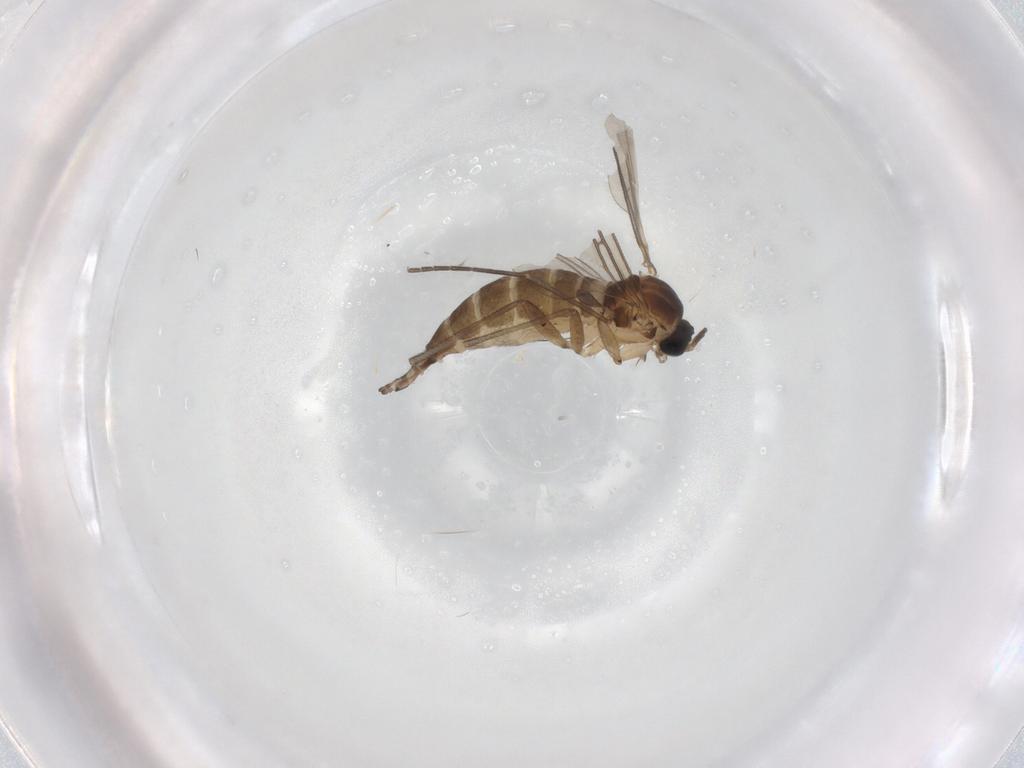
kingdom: Animalia
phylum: Arthropoda
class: Insecta
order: Diptera
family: Sciaridae
